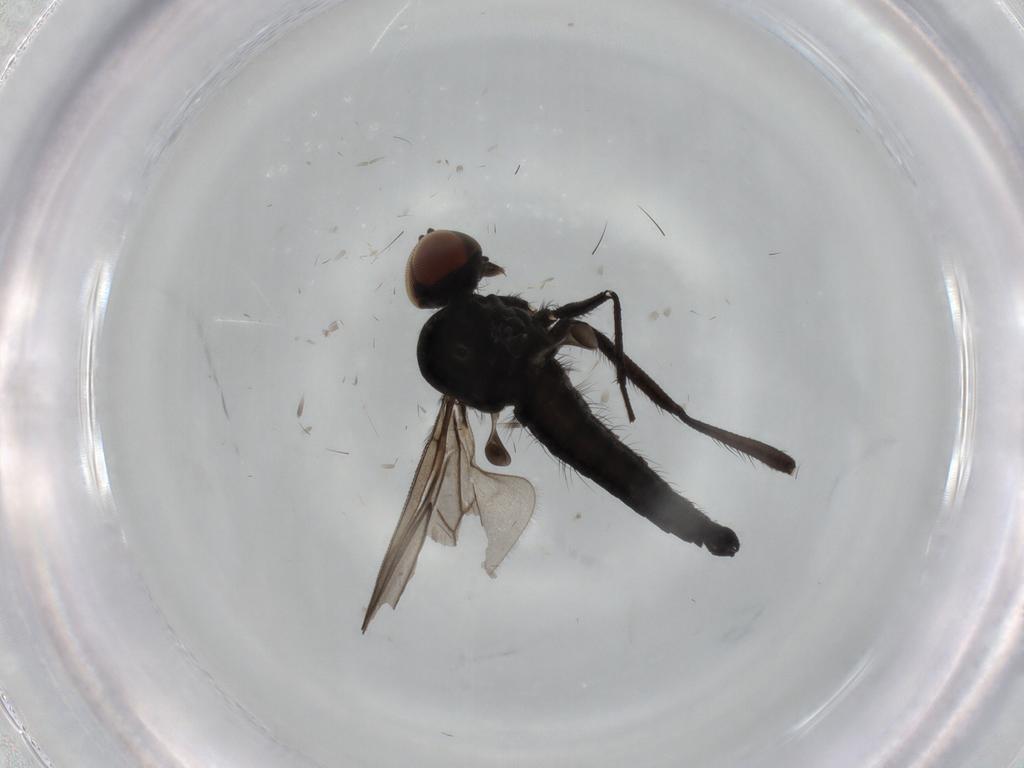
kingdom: Animalia
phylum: Arthropoda
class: Insecta
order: Diptera
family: Hybotidae
